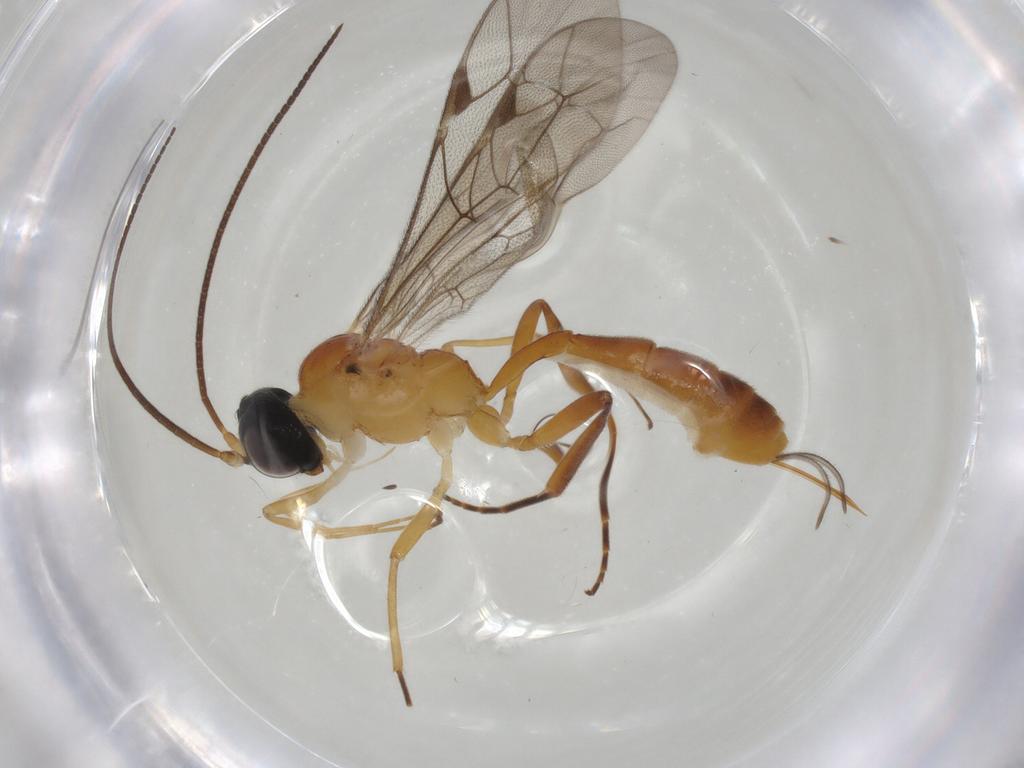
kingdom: Animalia
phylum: Arthropoda
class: Insecta
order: Hymenoptera
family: Ichneumonidae
